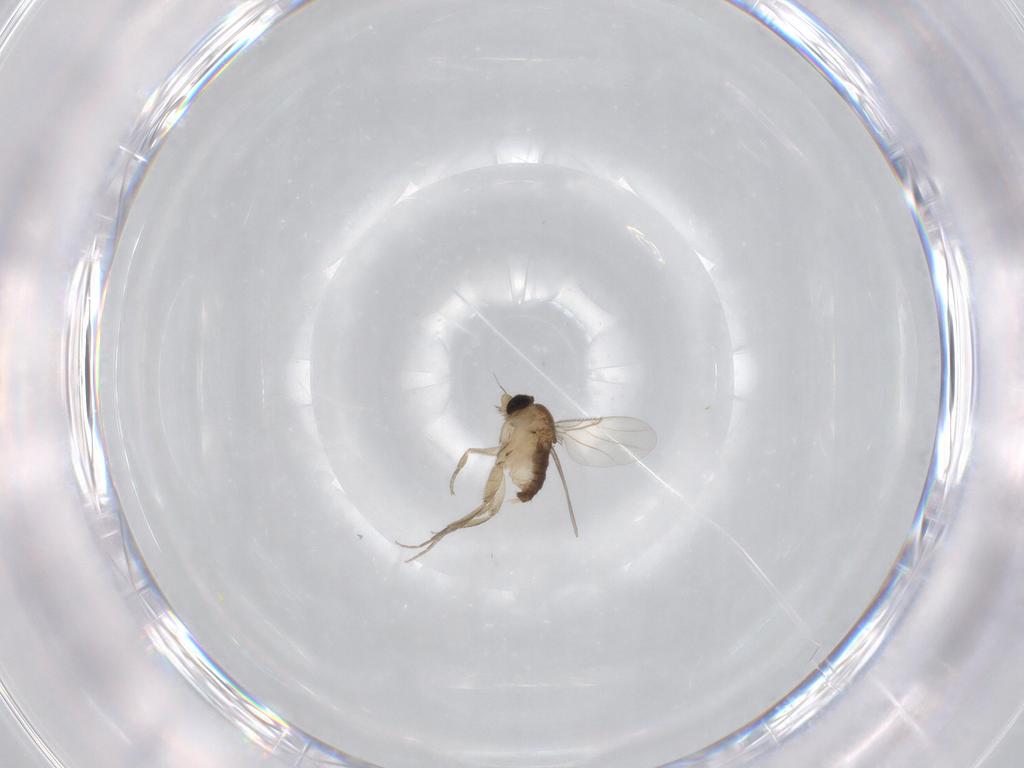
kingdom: Animalia
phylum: Arthropoda
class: Insecta
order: Diptera
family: Phoridae
